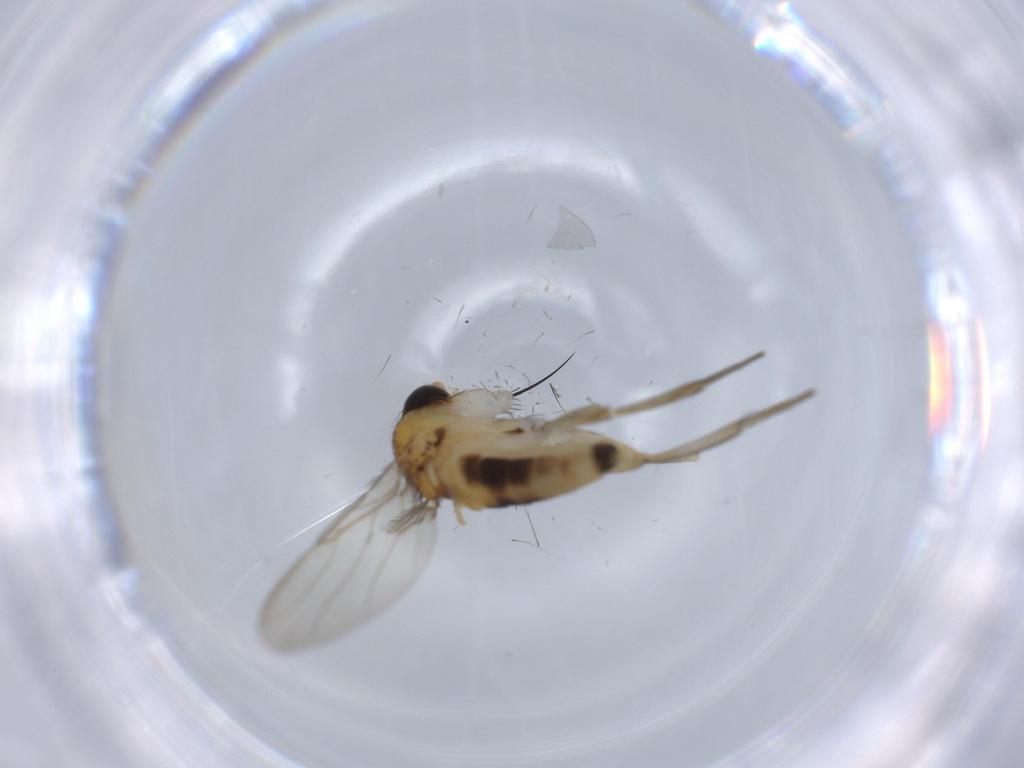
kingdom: Animalia
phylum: Arthropoda
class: Insecta
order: Diptera
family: Phoridae
